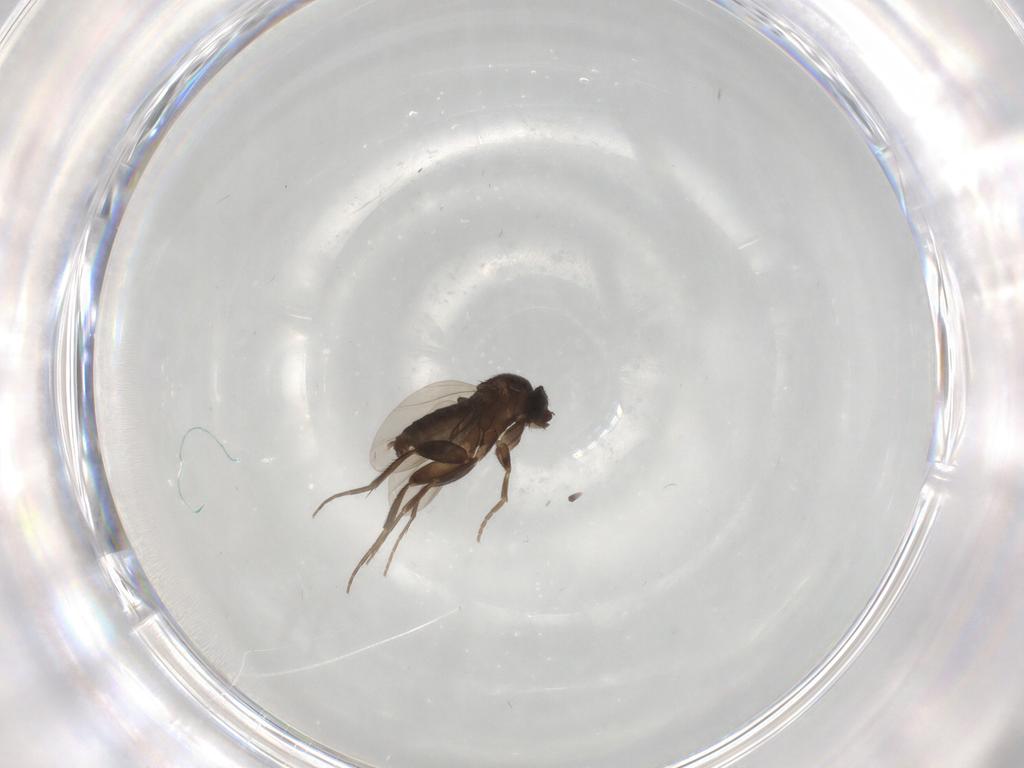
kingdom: Animalia
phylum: Arthropoda
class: Insecta
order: Diptera
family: Phoridae
